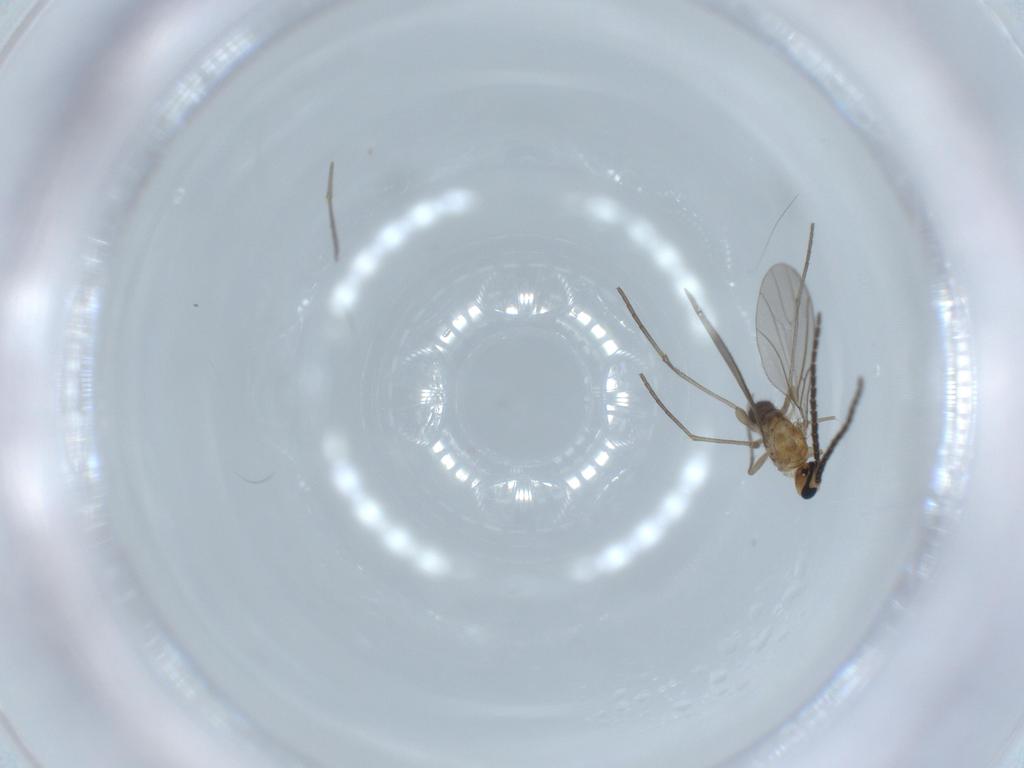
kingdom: Animalia
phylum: Arthropoda
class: Insecta
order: Diptera
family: Sciaridae
